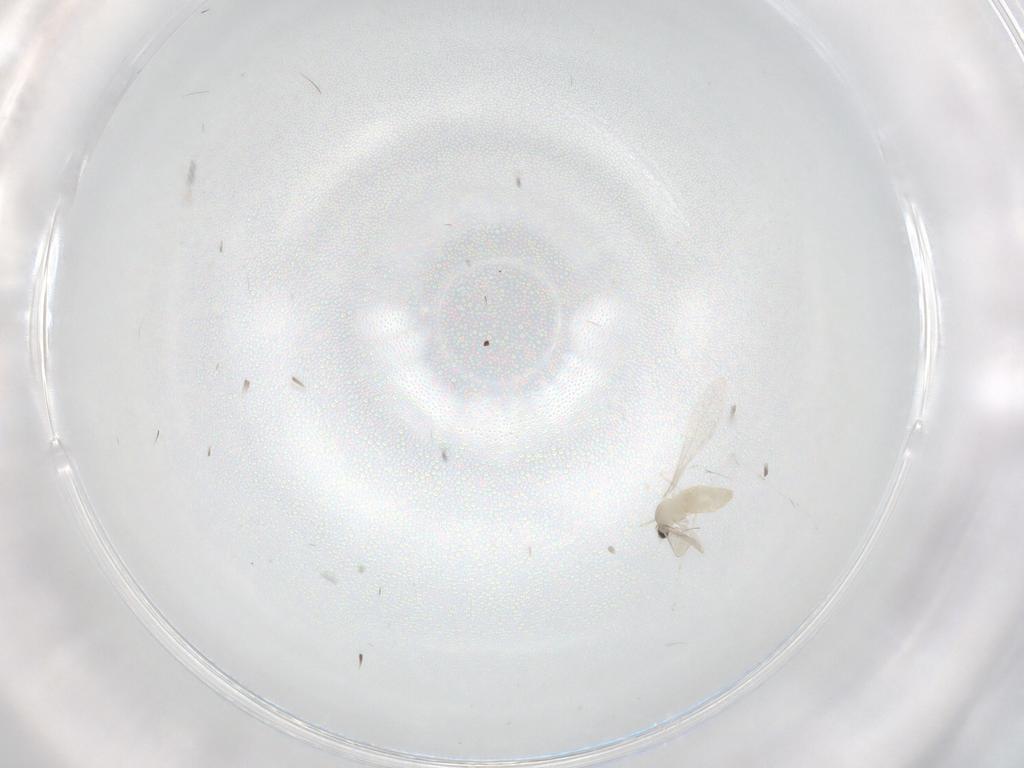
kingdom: Animalia
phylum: Arthropoda
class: Insecta
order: Diptera
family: Cecidomyiidae
